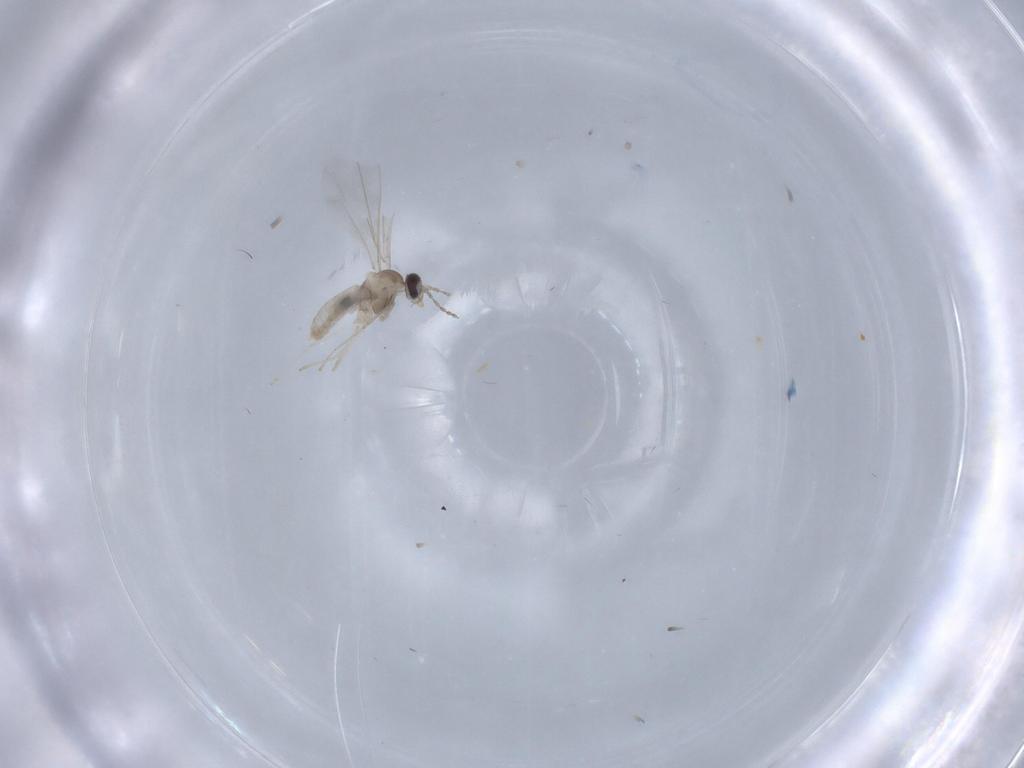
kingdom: Animalia
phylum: Arthropoda
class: Insecta
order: Diptera
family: Cecidomyiidae
